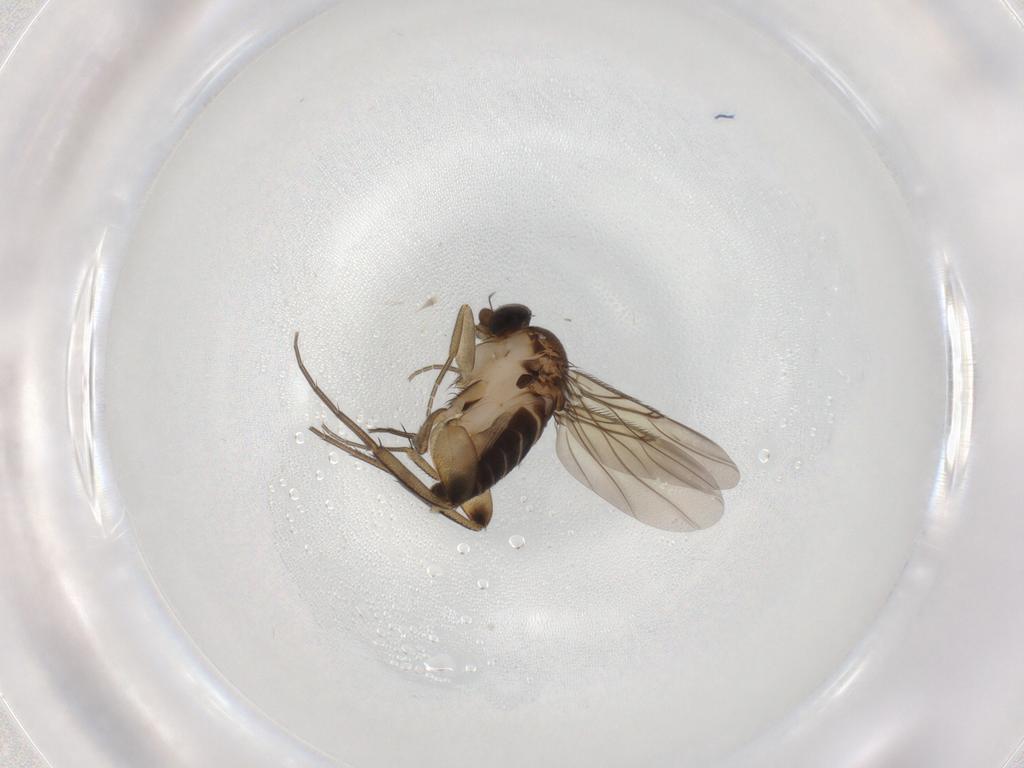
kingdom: Animalia
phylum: Arthropoda
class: Insecta
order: Diptera
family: Phoridae
